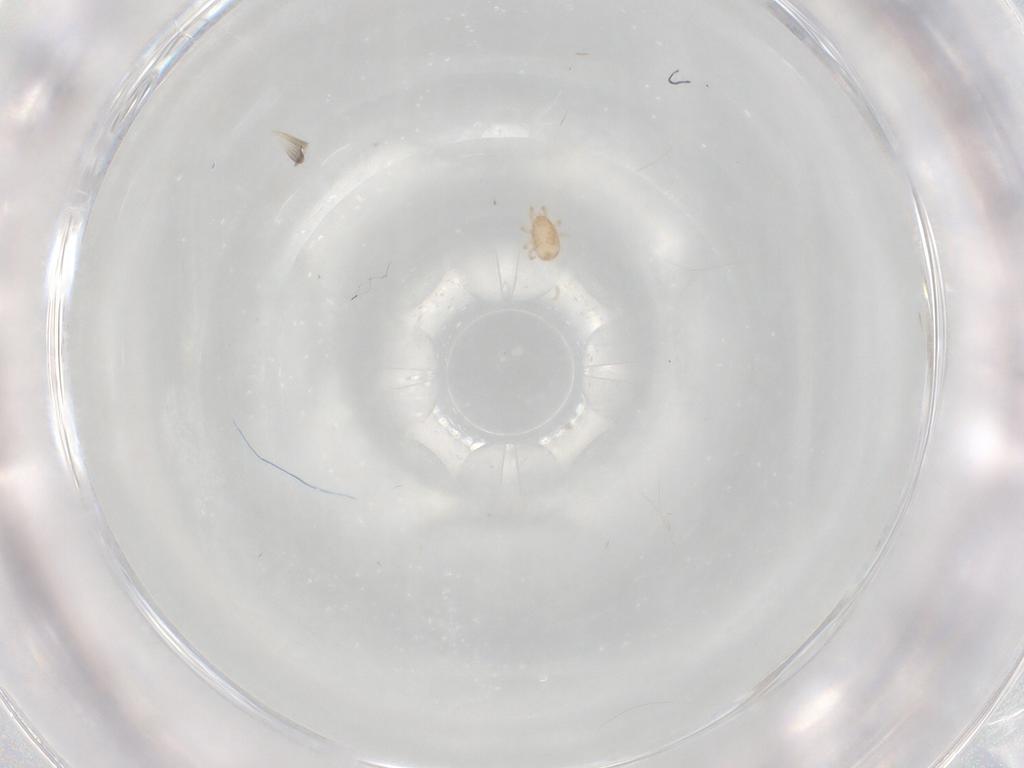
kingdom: Animalia
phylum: Arthropoda
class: Arachnida
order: Mesostigmata
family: Ascidae
